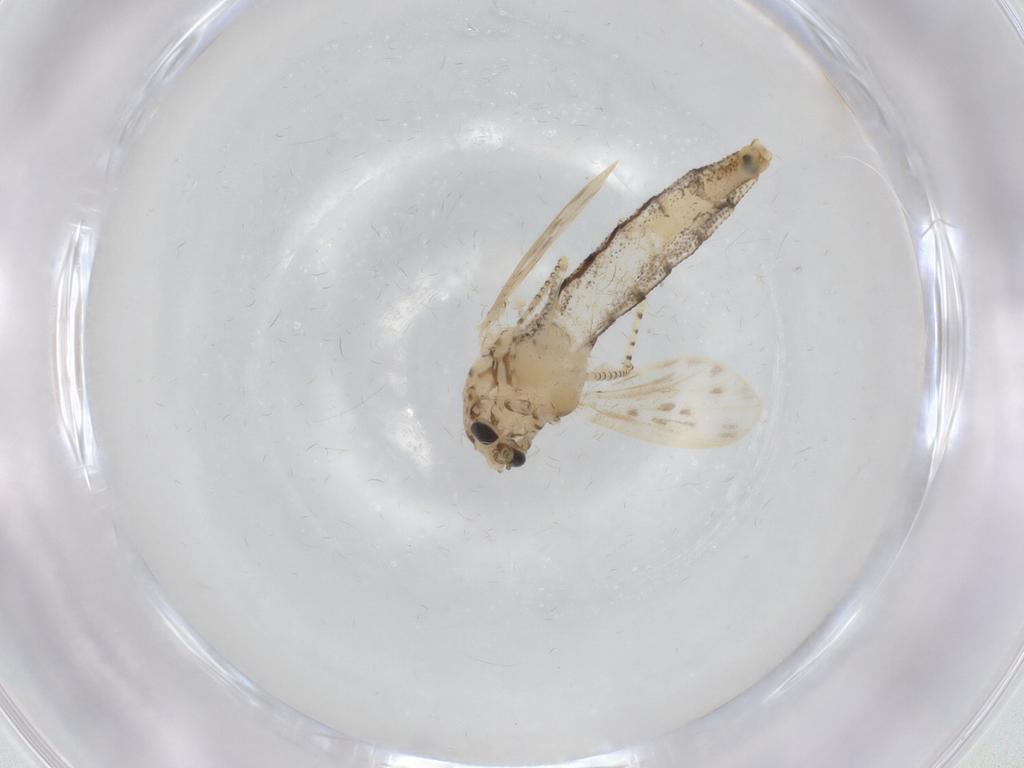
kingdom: Animalia
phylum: Arthropoda
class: Insecta
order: Diptera
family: Chaoboridae
